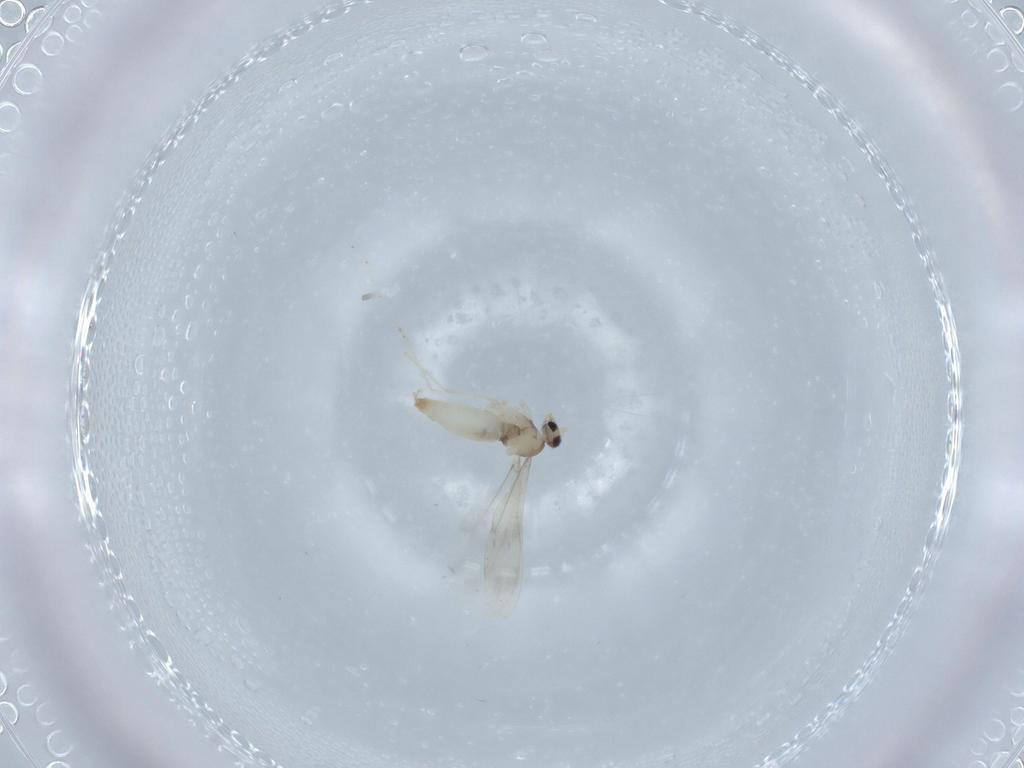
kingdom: Animalia
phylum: Arthropoda
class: Insecta
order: Diptera
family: Cecidomyiidae
